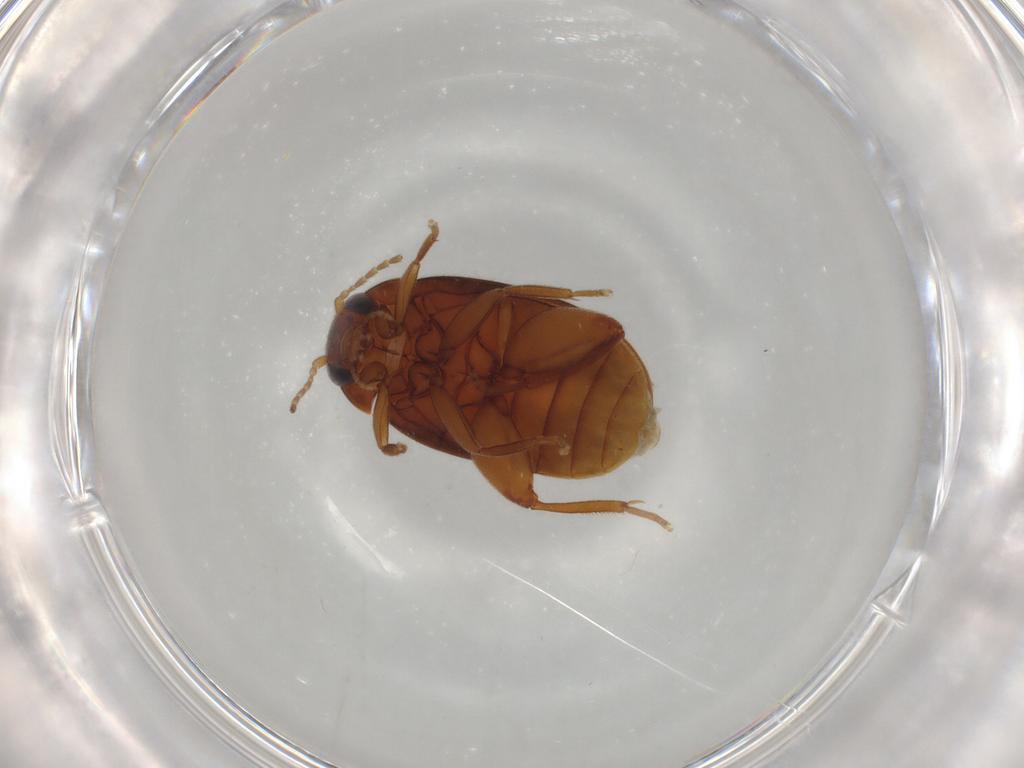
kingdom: Animalia
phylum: Arthropoda
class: Insecta
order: Coleoptera
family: Scirtidae
